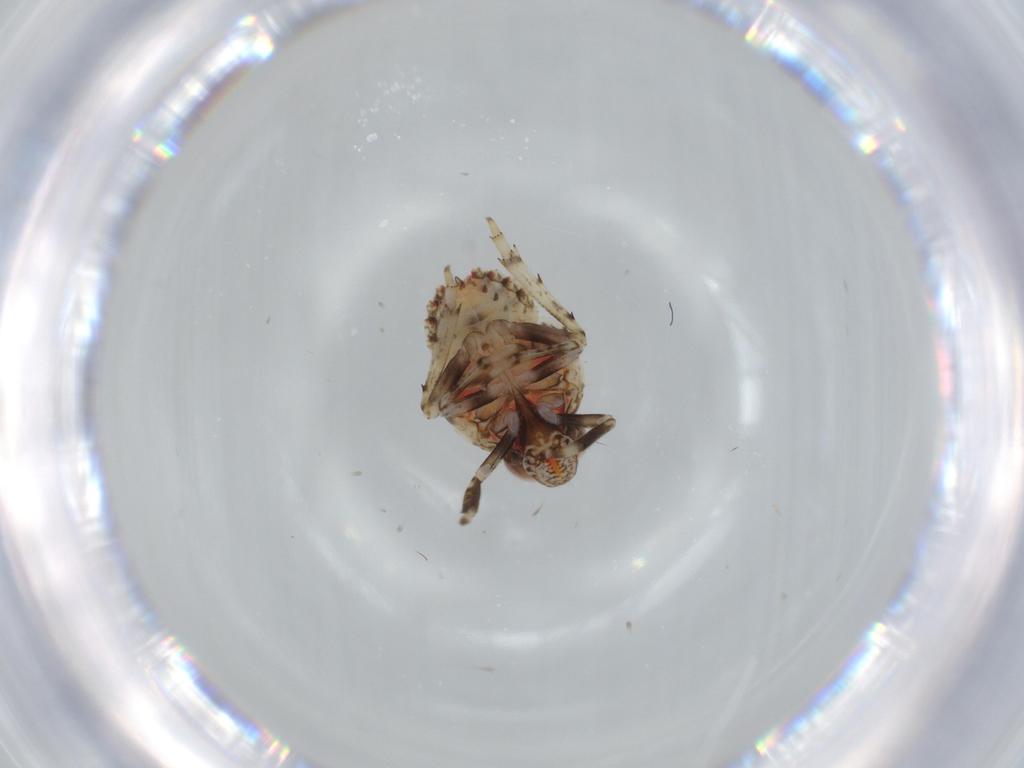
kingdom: Animalia
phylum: Arthropoda
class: Insecta
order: Hemiptera
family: Issidae
